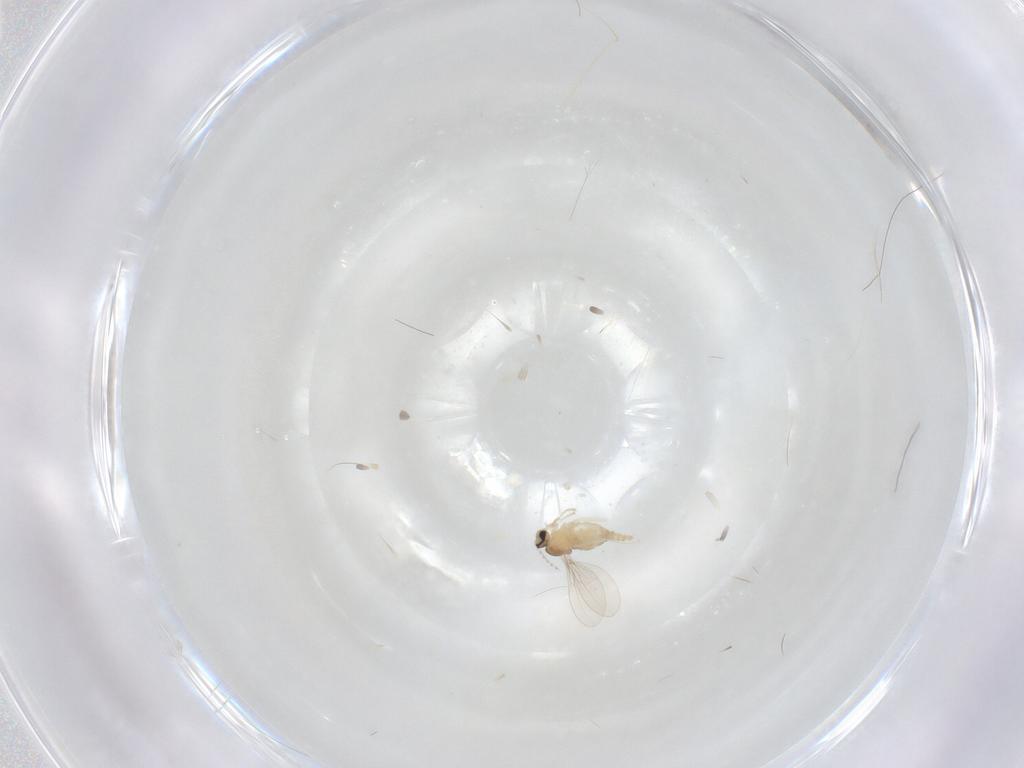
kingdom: Animalia
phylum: Arthropoda
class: Insecta
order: Diptera
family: Cecidomyiidae
